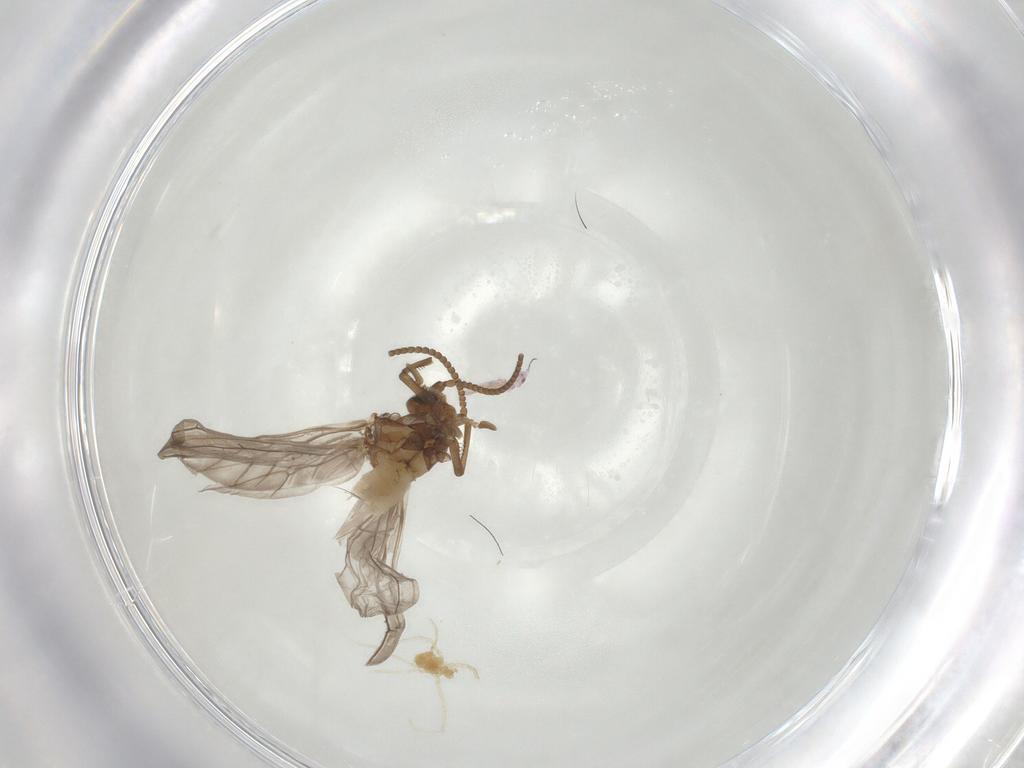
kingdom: Animalia
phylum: Arthropoda
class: Insecta
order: Neuroptera
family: Coniopterygidae
